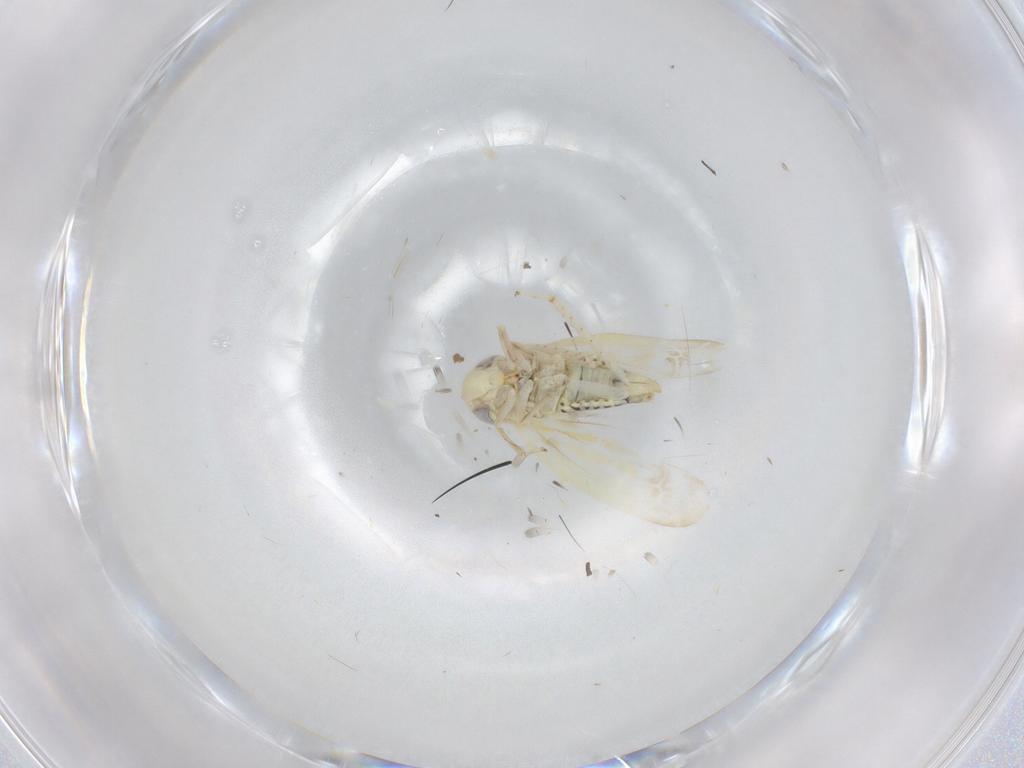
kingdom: Animalia
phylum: Arthropoda
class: Insecta
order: Hemiptera
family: Cicadellidae
